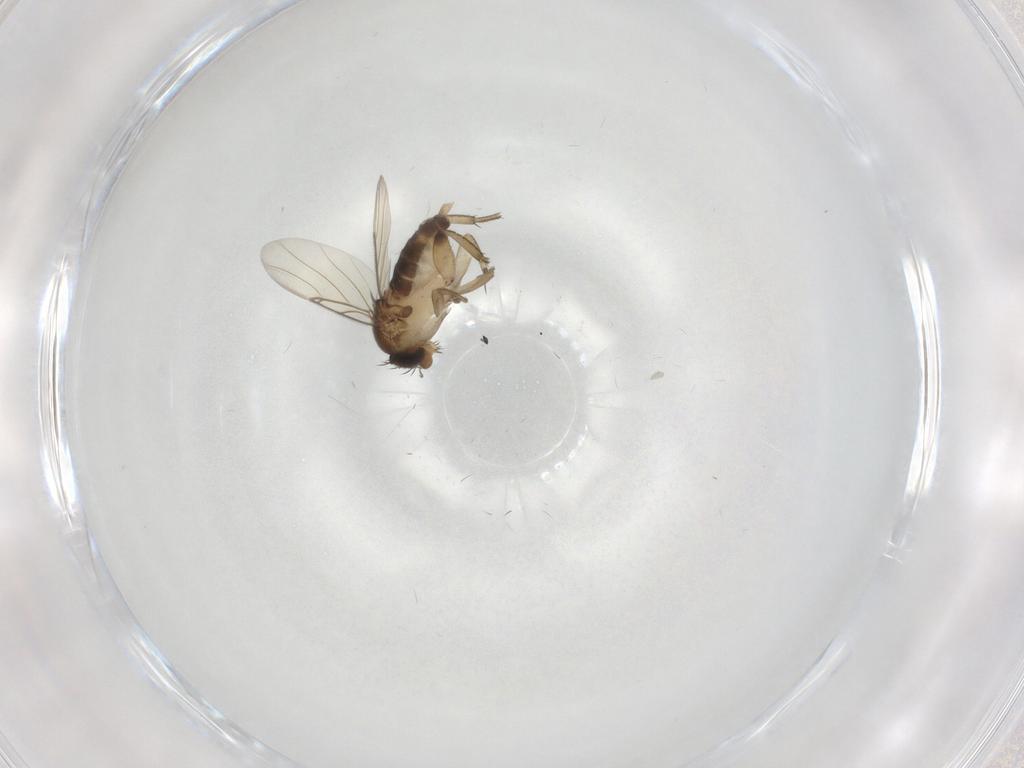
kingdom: Animalia
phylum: Arthropoda
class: Insecta
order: Diptera
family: Phoridae
